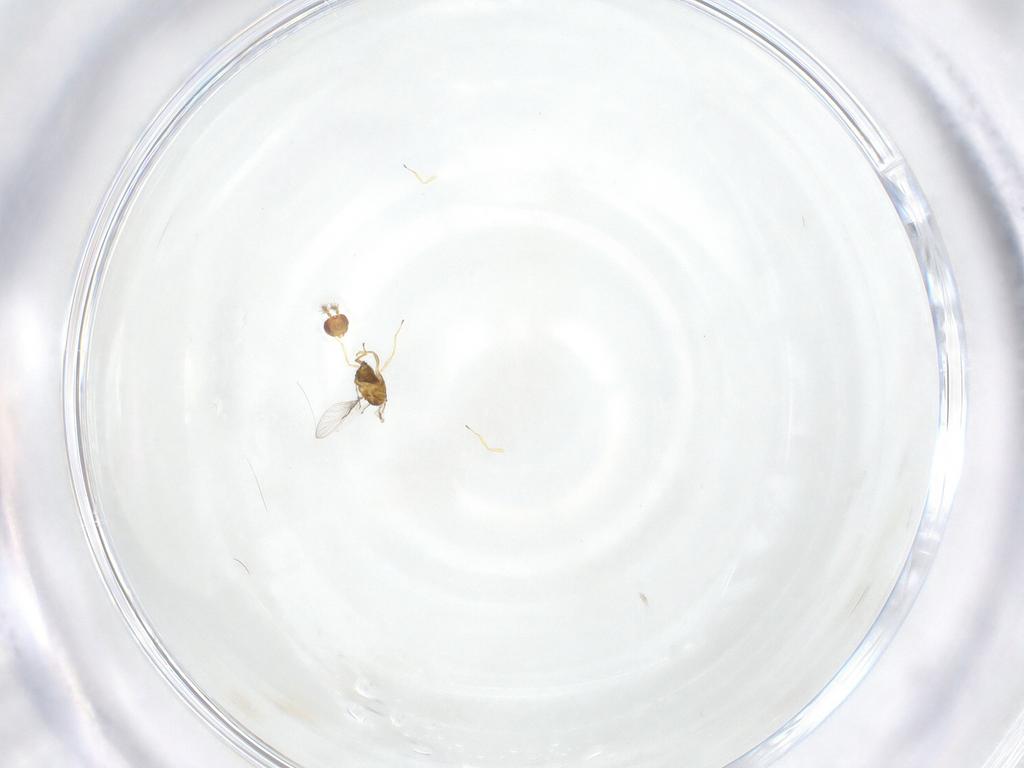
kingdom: Animalia
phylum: Arthropoda
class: Insecta
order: Hymenoptera
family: Trichogrammatidae
